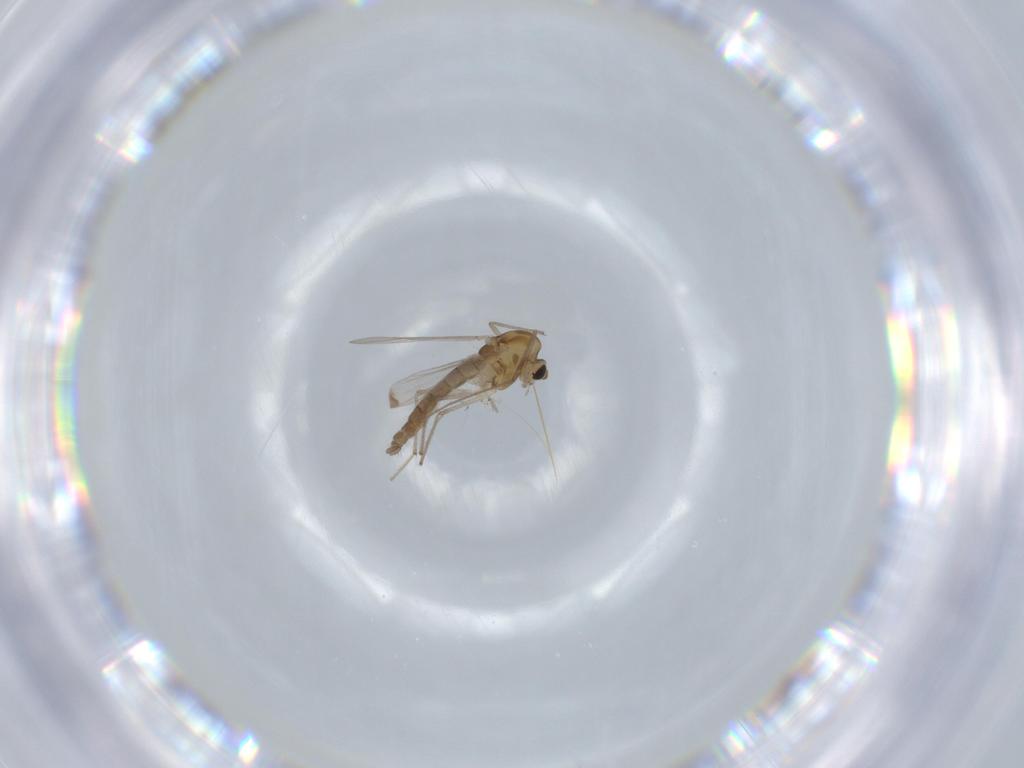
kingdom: Animalia
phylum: Arthropoda
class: Insecta
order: Diptera
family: Chironomidae
